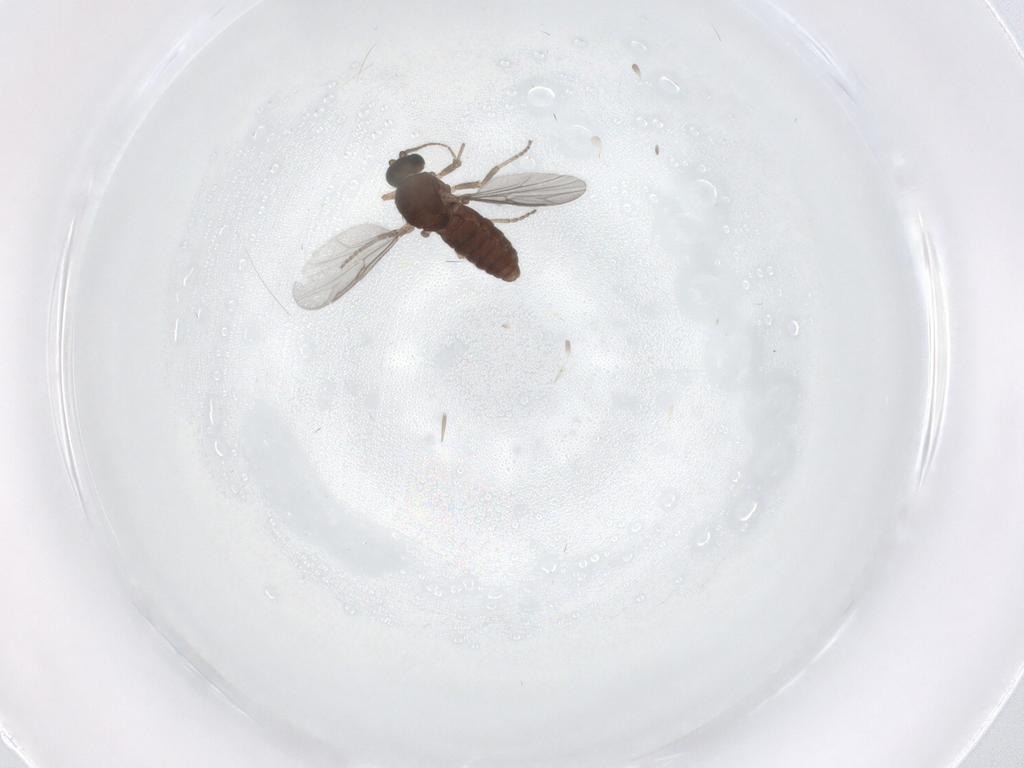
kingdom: Animalia
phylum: Arthropoda
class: Insecta
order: Diptera
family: Ceratopogonidae
